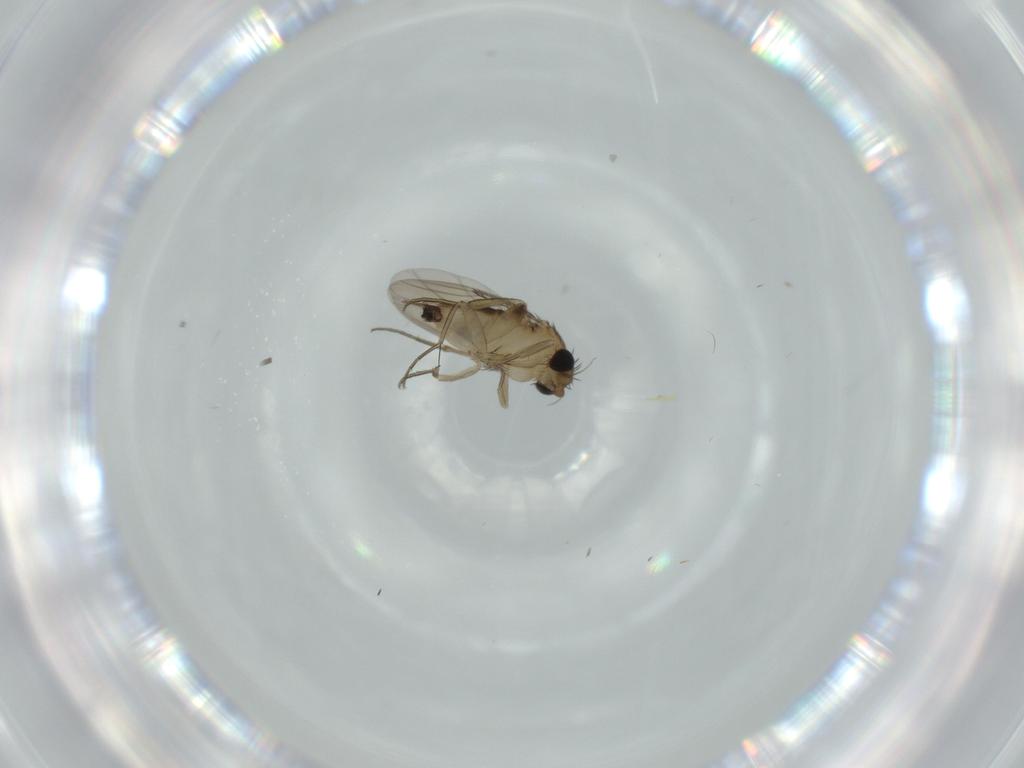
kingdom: Animalia
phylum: Arthropoda
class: Insecta
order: Diptera
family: Phoridae
